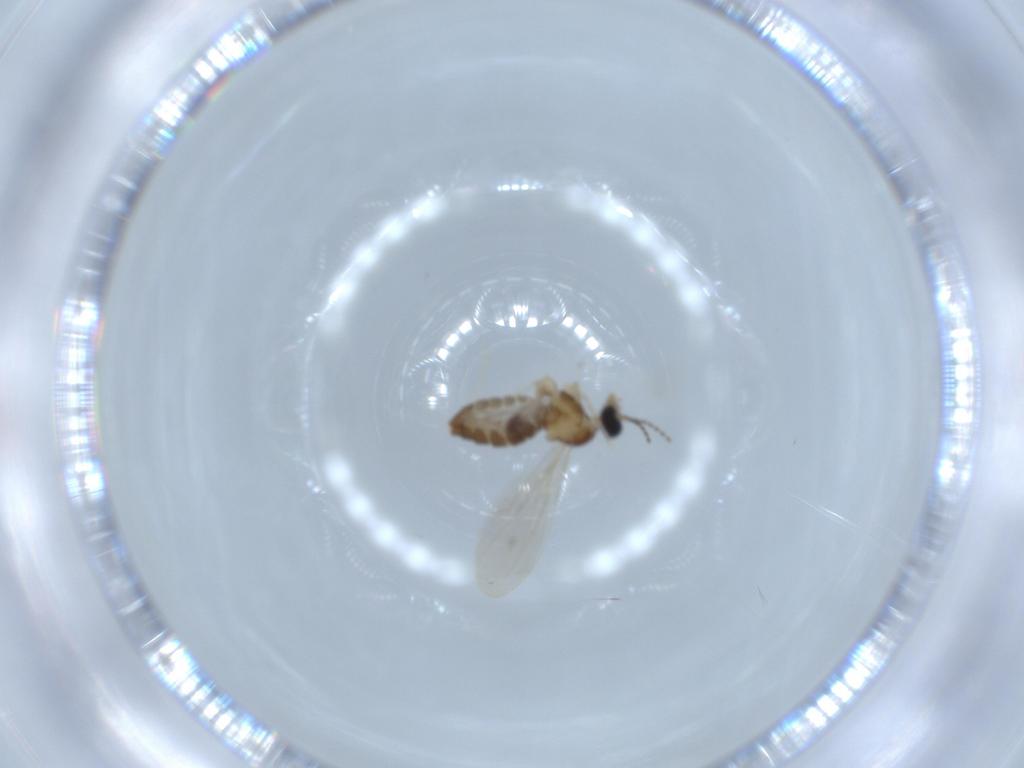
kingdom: Animalia
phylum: Arthropoda
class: Insecta
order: Diptera
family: Cecidomyiidae
